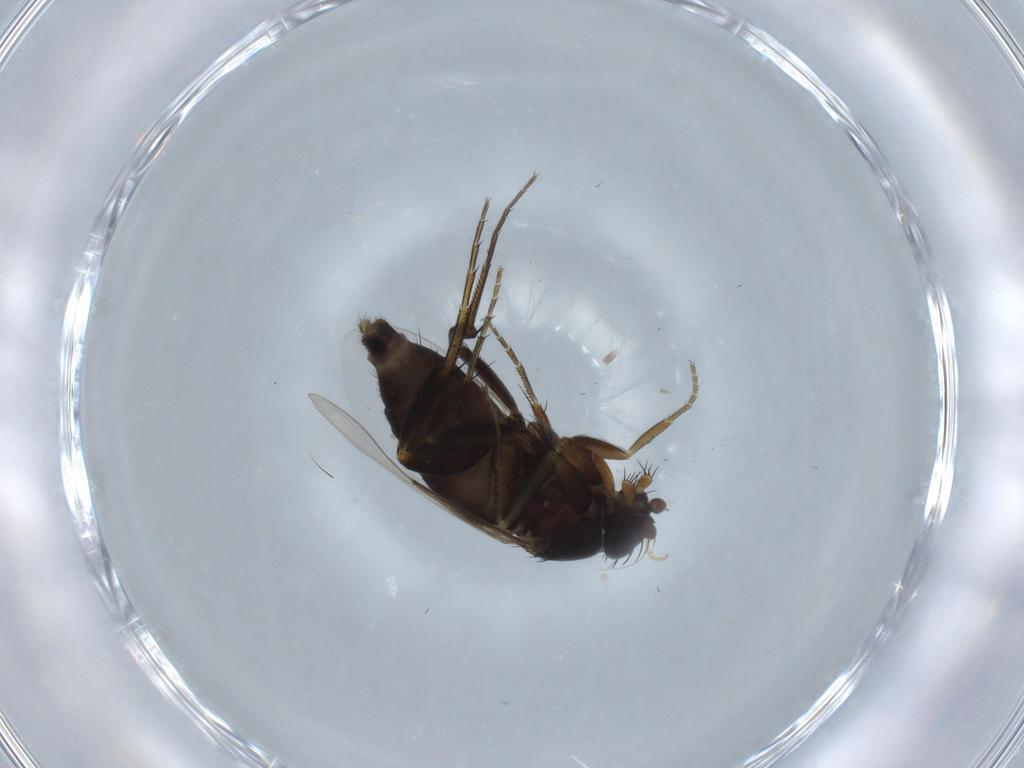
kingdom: Animalia
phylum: Arthropoda
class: Insecta
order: Diptera
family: Phoridae
